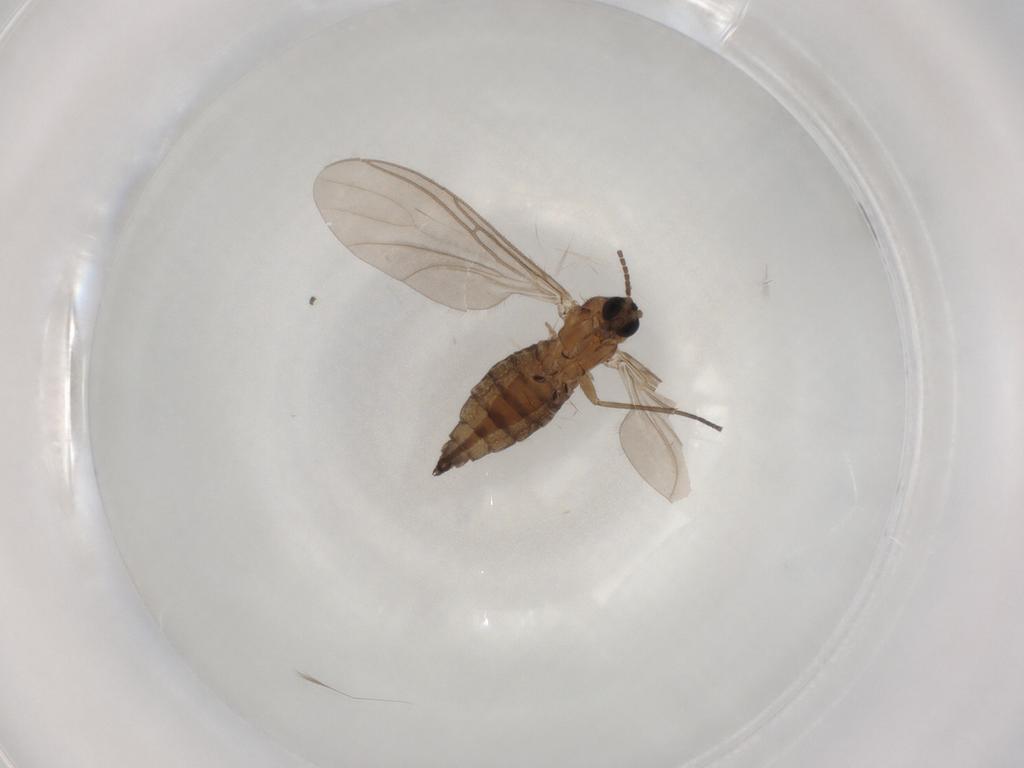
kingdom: Animalia
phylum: Arthropoda
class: Insecta
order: Diptera
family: Sciaridae
